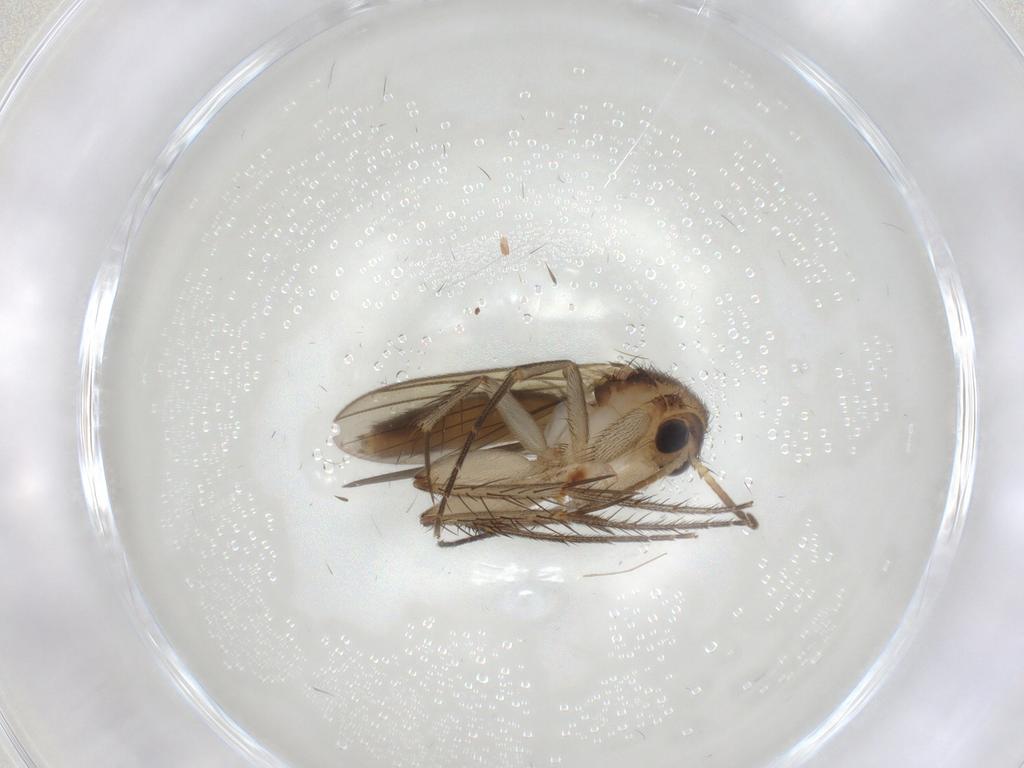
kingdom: Animalia
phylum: Arthropoda
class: Insecta
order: Diptera
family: Mycetophilidae
